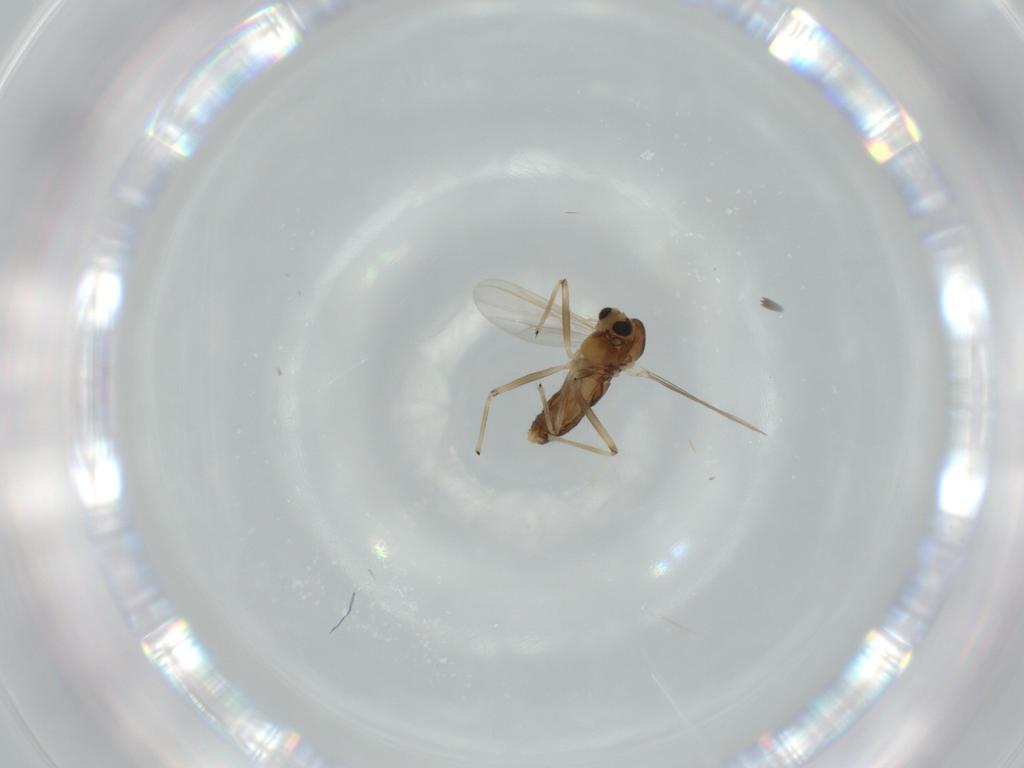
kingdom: Animalia
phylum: Arthropoda
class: Insecta
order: Diptera
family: Chironomidae
